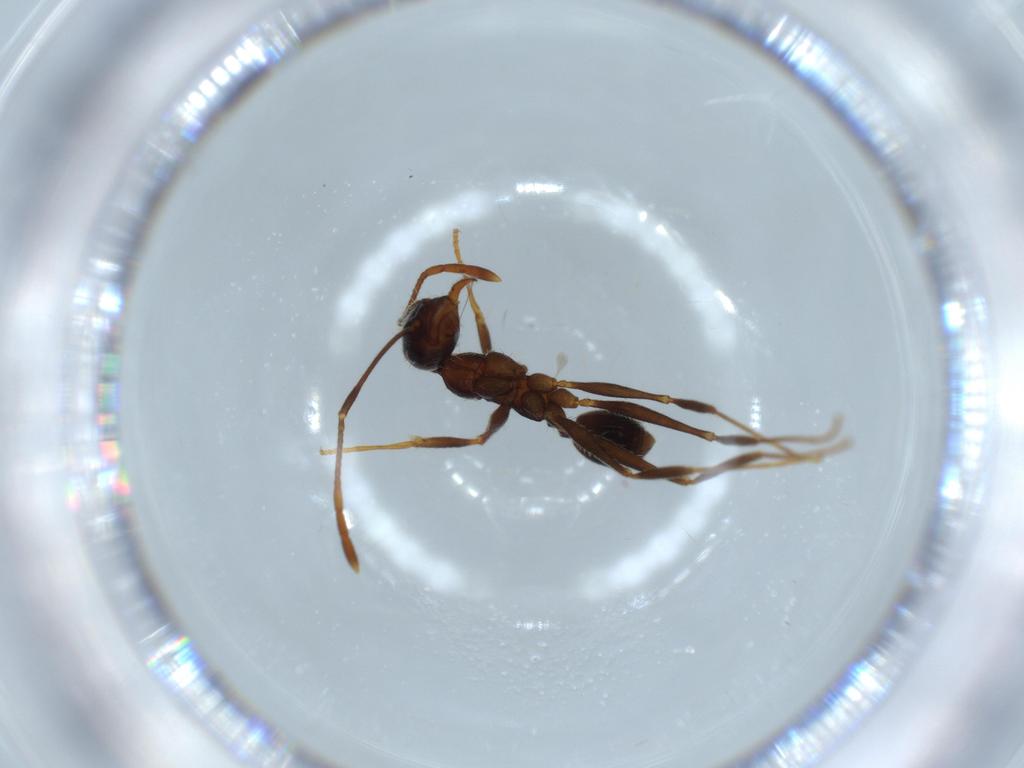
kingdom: Animalia
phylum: Arthropoda
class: Insecta
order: Hymenoptera
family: Formicidae
